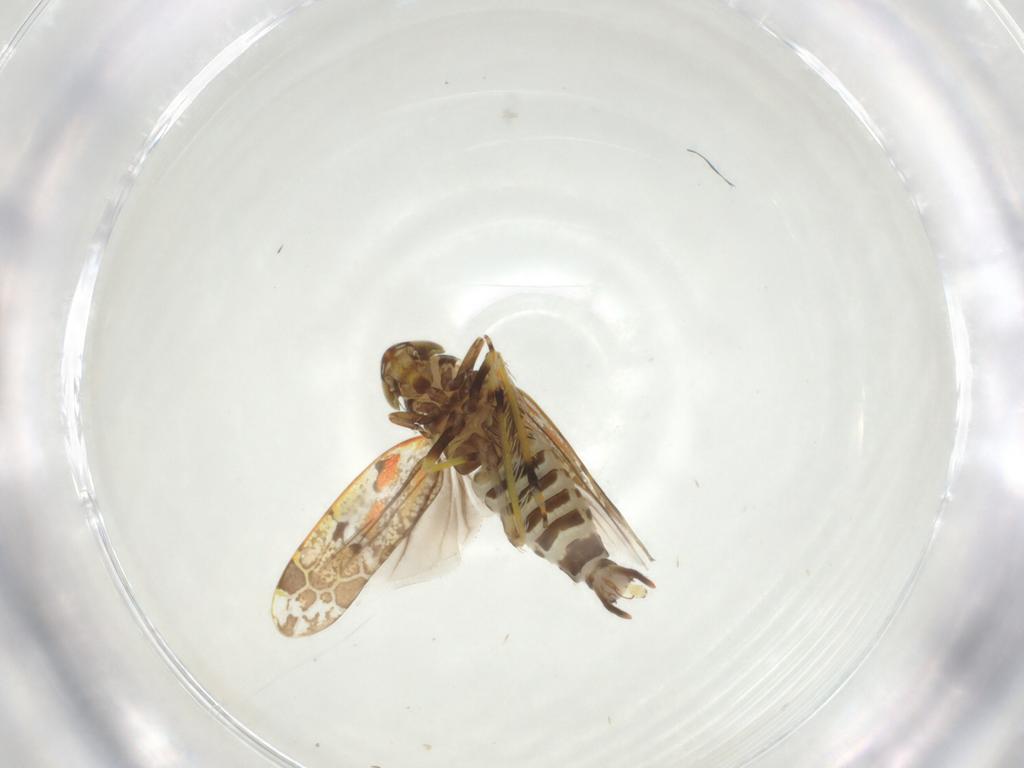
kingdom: Animalia
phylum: Arthropoda
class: Insecta
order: Hemiptera
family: Cicadellidae
